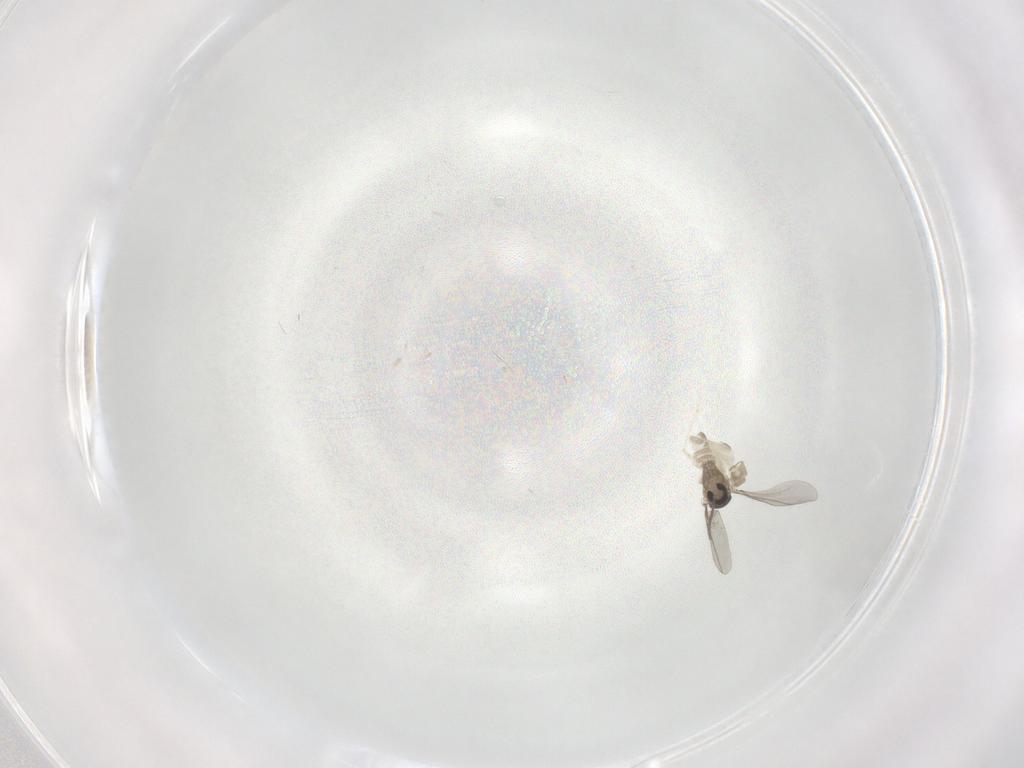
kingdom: Animalia
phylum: Arthropoda
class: Insecta
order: Diptera
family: Cecidomyiidae
